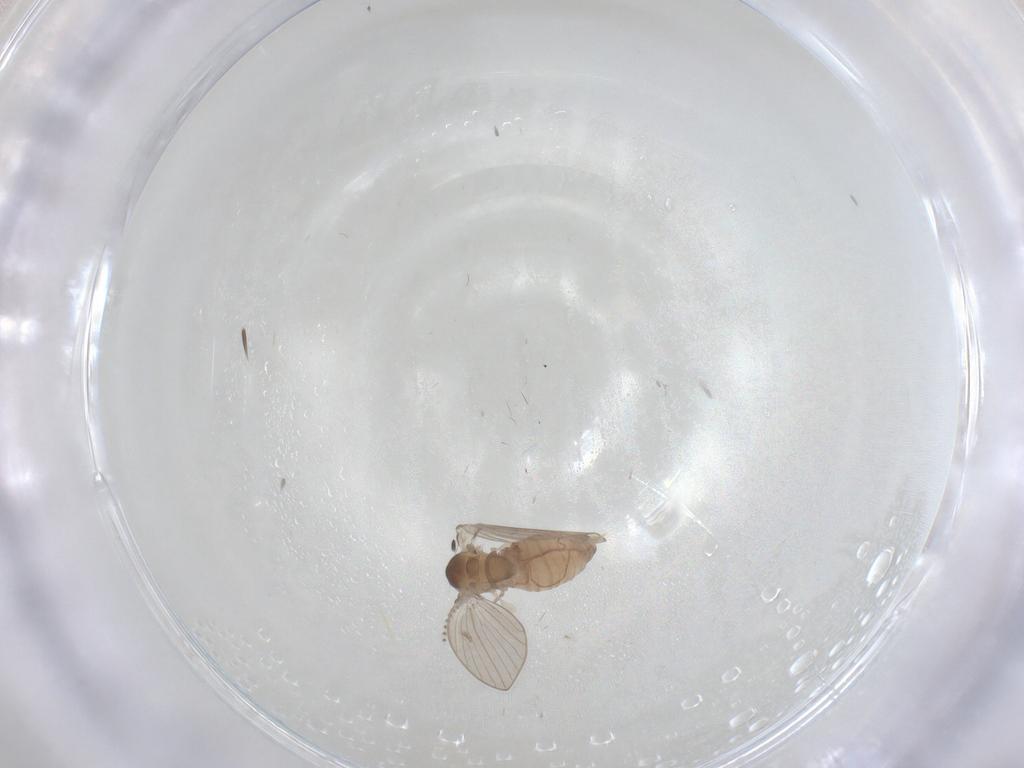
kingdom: Animalia
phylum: Arthropoda
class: Insecta
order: Diptera
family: Psychodidae
